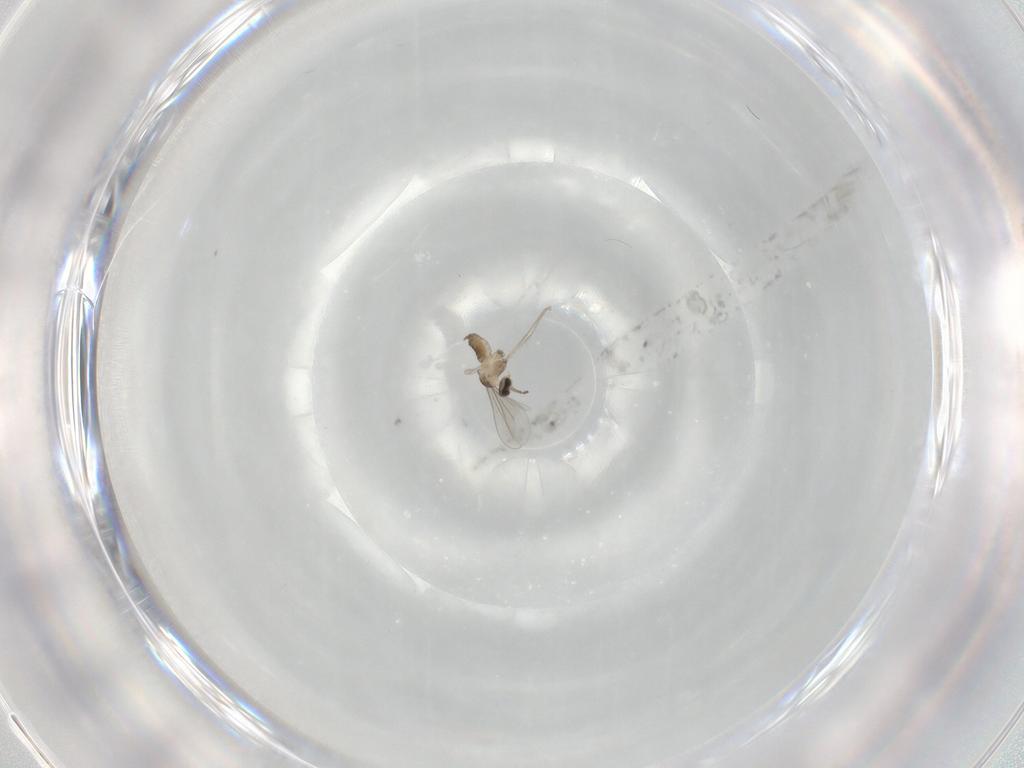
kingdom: Animalia
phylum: Arthropoda
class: Insecta
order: Diptera
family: Cecidomyiidae
